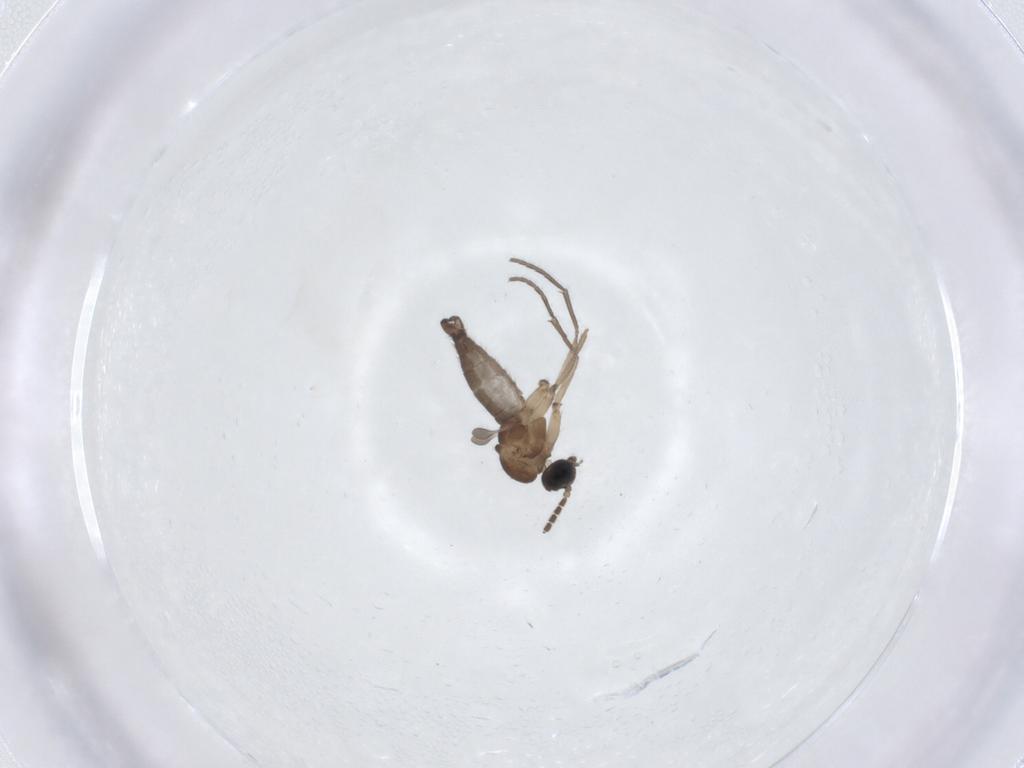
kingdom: Animalia
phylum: Arthropoda
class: Insecta
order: Diptera
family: Sciaridae
